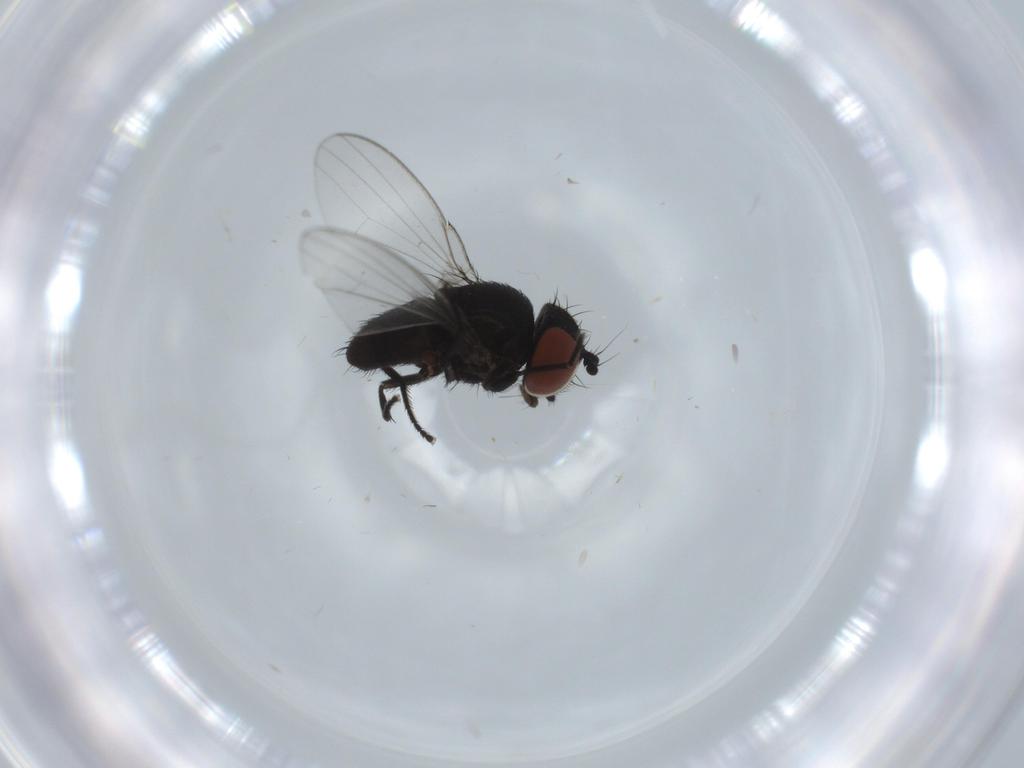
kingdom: Animalia
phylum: Arthropoda
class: Insecta
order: Diptera
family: Milichiidae
